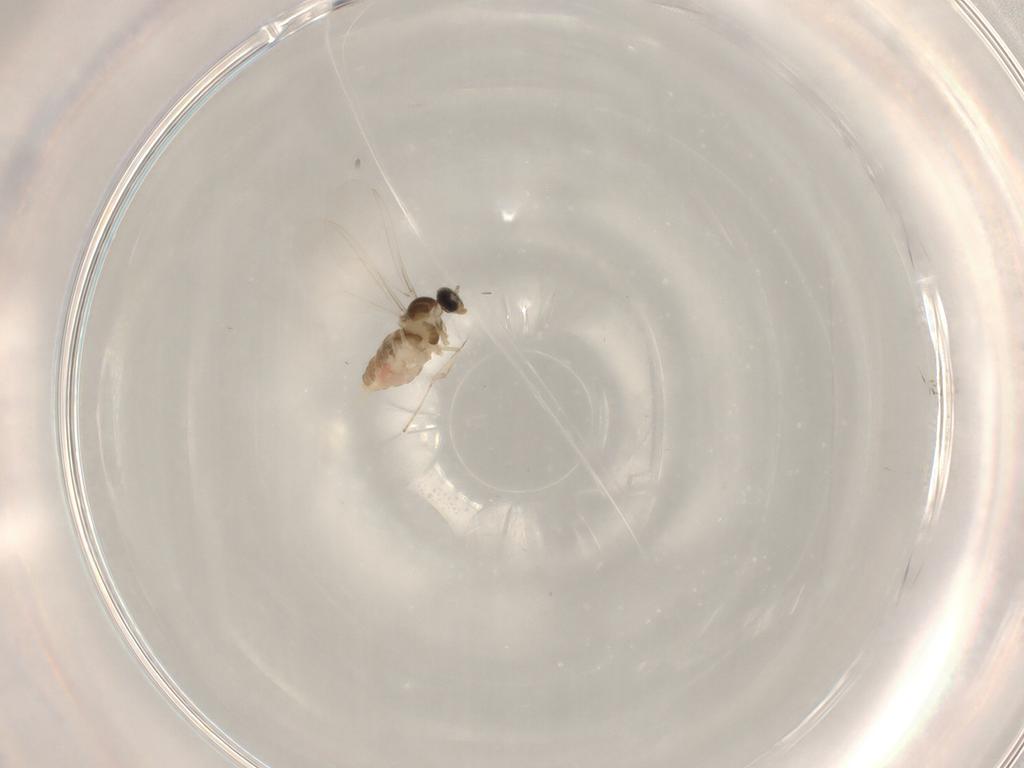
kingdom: Animalia
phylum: Arthropoda
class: Insecta
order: Diptera
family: Cecidomyiidae
